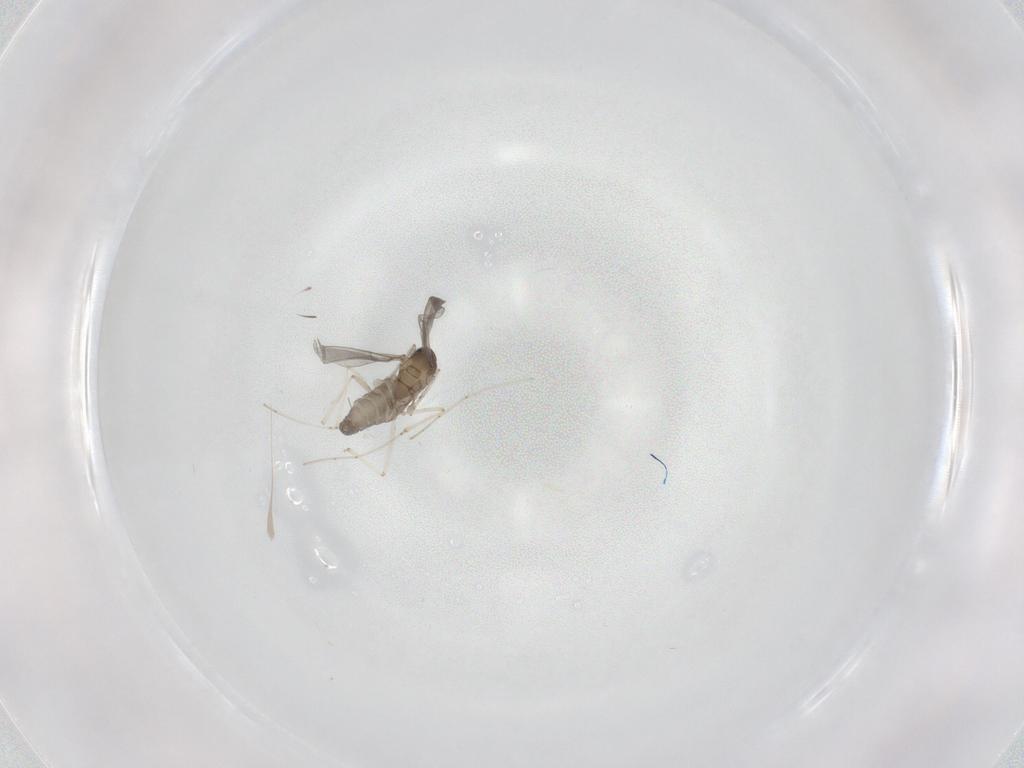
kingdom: Animalia
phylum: Arthropoda
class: Insecta
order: Diptera
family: Cecidomyiidae
